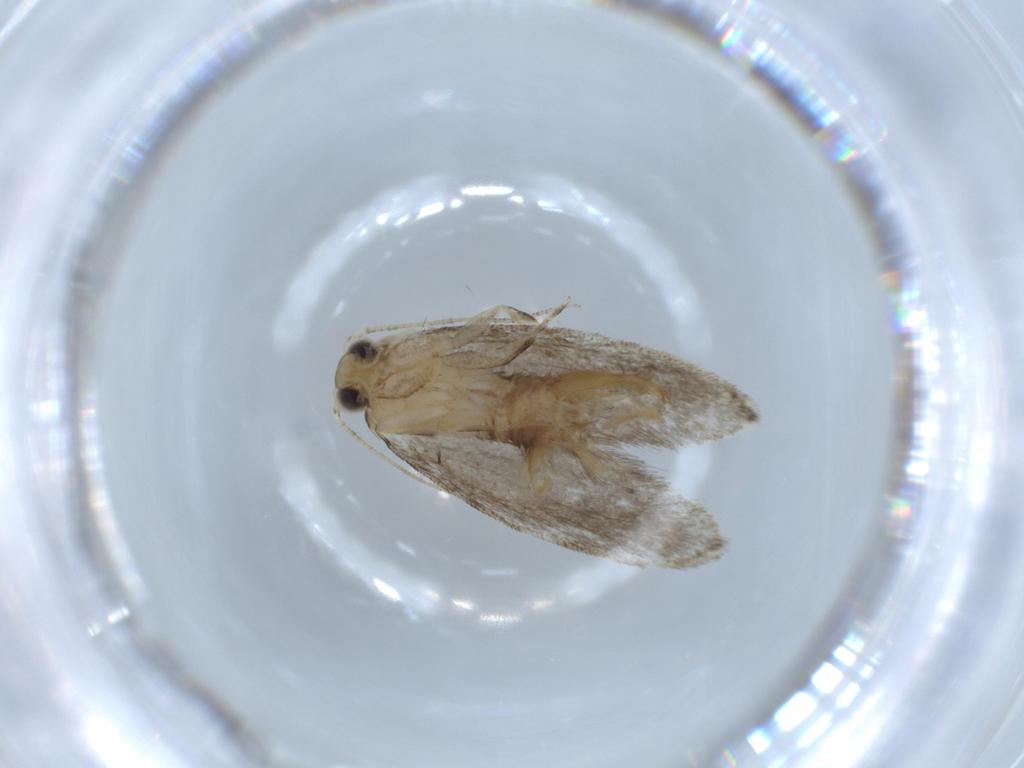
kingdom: Animalia
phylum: Arthropoda
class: Insecta
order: Lepidoptera
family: Tineidae
